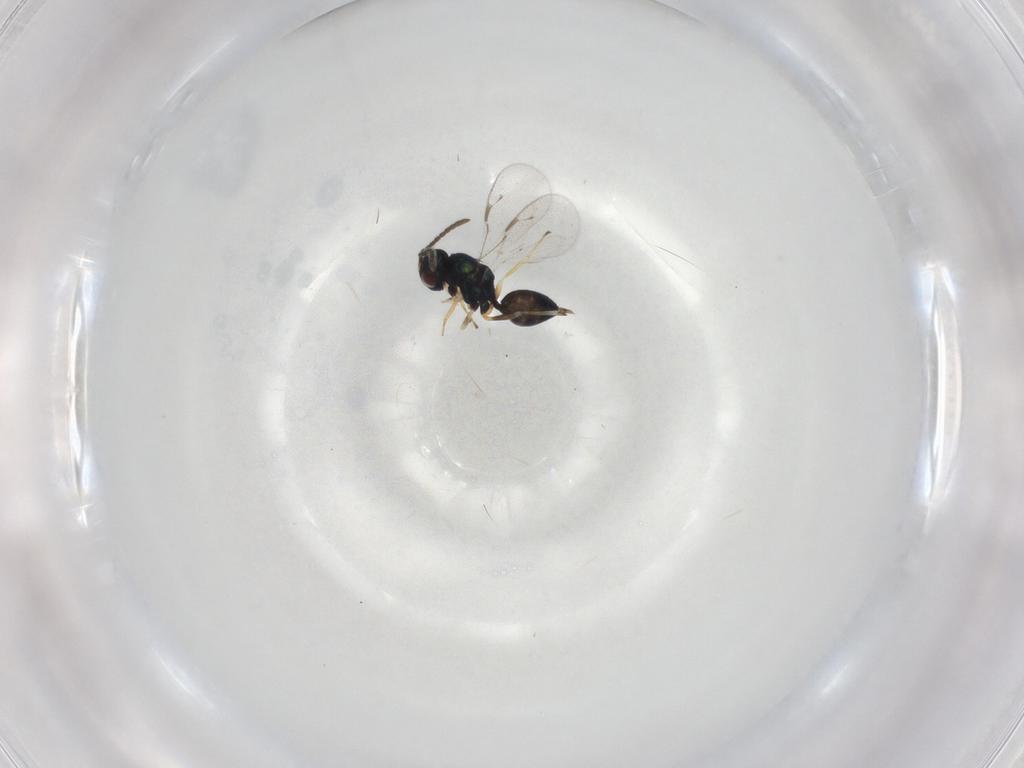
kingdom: Animalia
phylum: Arthropoda
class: Insecta
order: Hymenoptera
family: Pteromalidae
